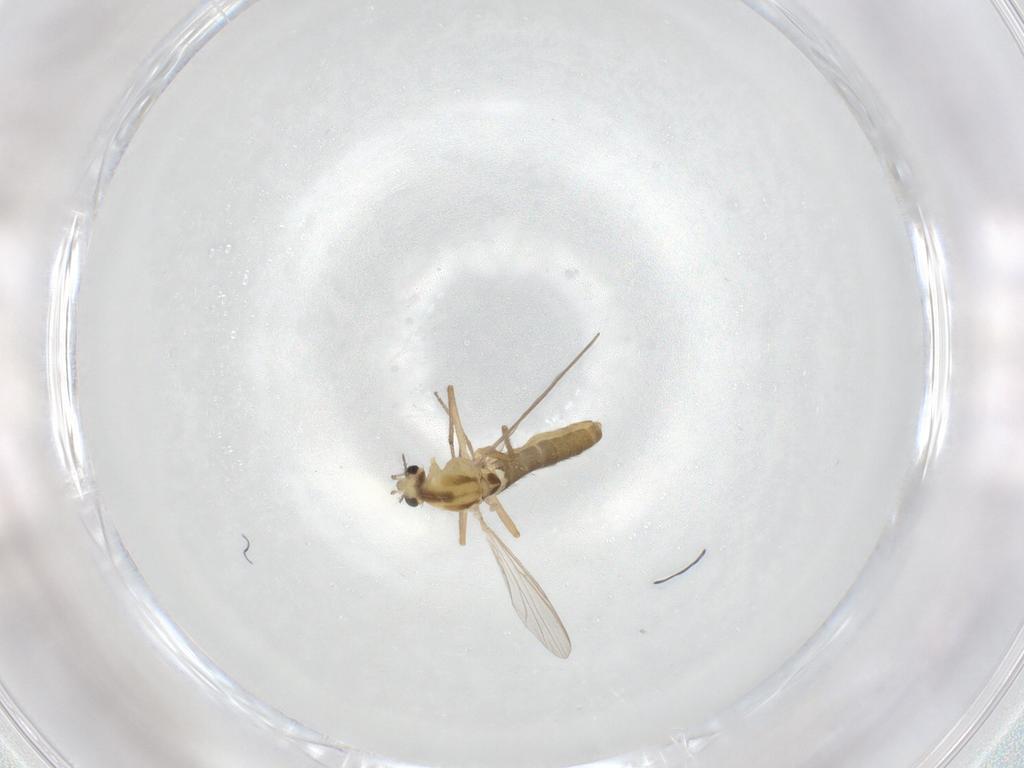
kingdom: Animalia
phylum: Arthropoda
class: Insecta
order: Diptera
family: Chironomidae
